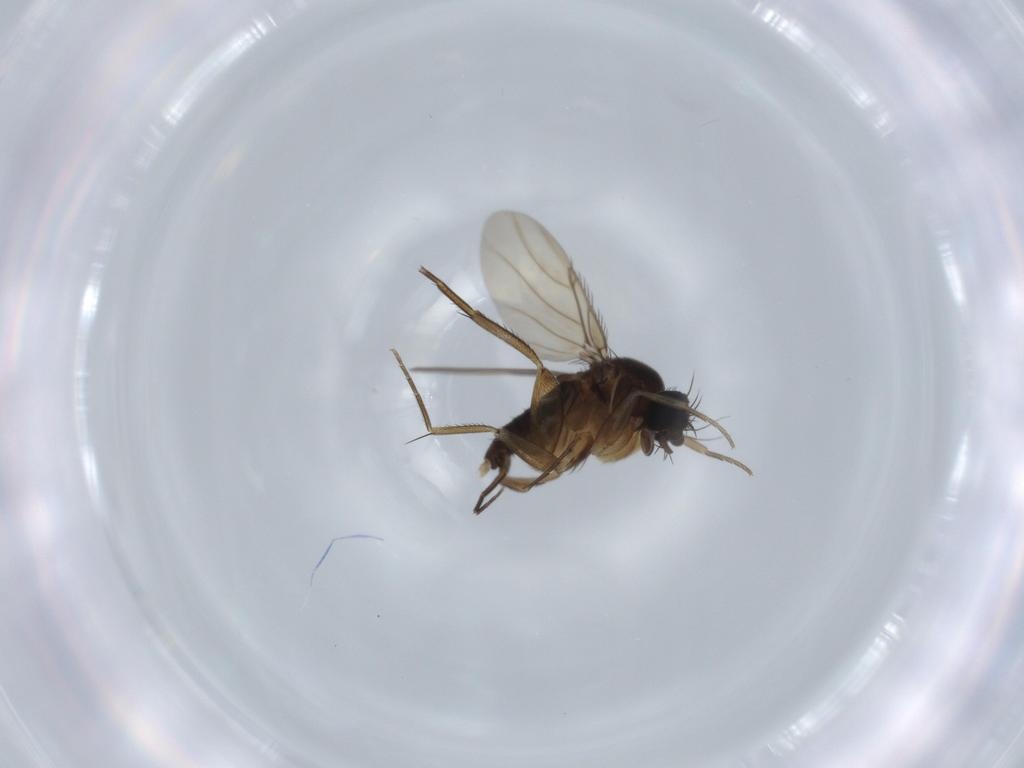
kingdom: Animalia
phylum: Arthropoda
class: Insecta
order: Diptera
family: Phoridae
